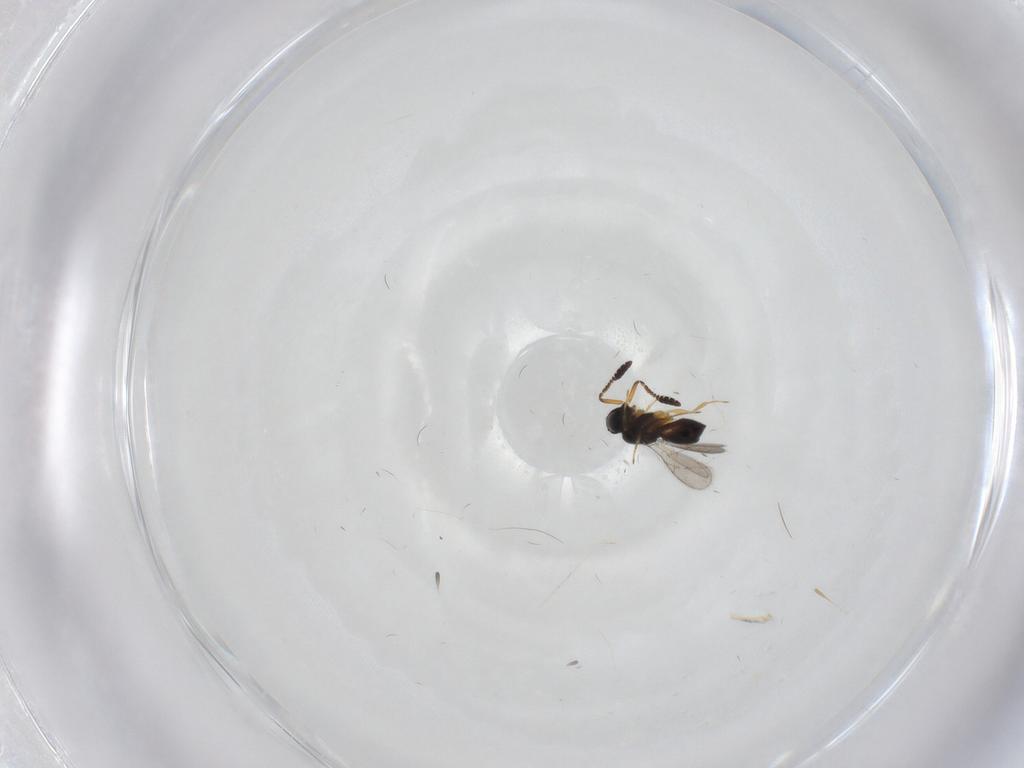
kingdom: Animalia
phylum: Arthropoda
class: Insecta
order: Hymenoptera
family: Scelionidae
